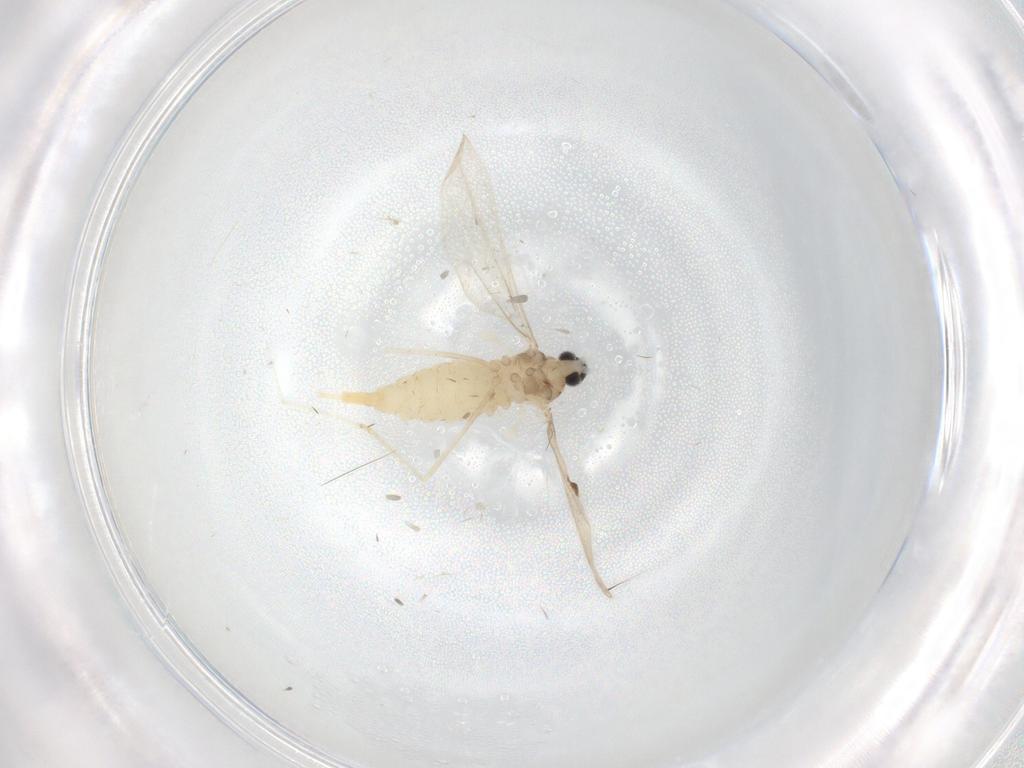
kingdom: Animalia
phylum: Arthropoda
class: Insecta
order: Diptera
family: Cecidomyiidae
